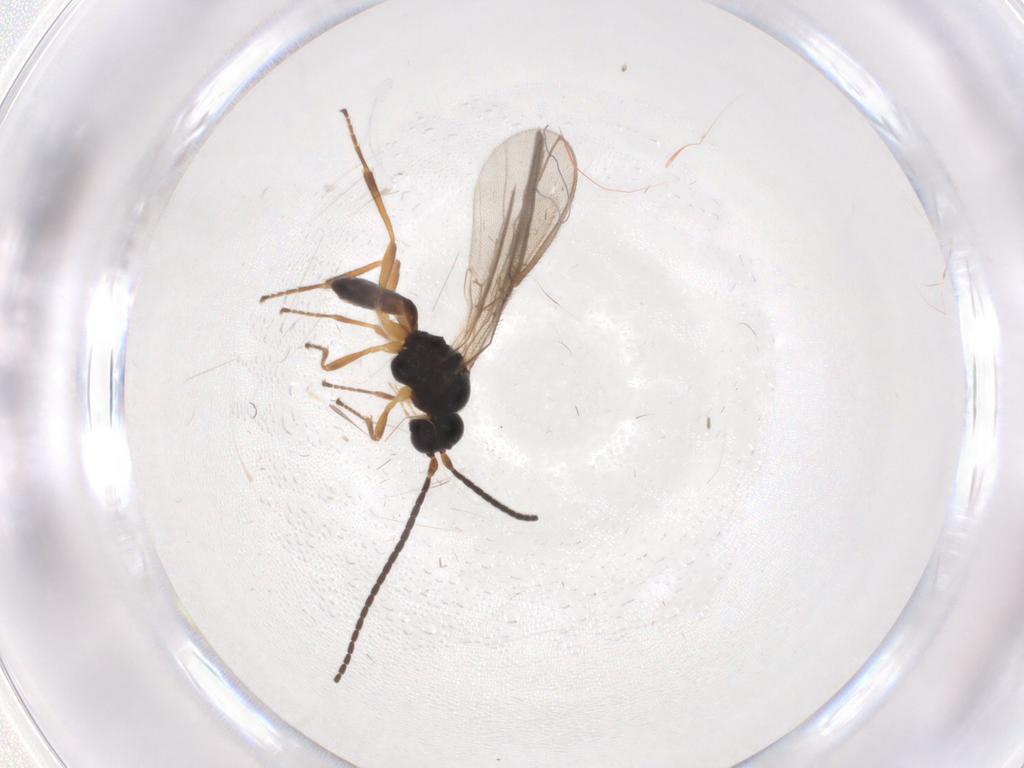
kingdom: Animalia
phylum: Arthropoda
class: Insecta
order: Hymenoptera
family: Braconidae
